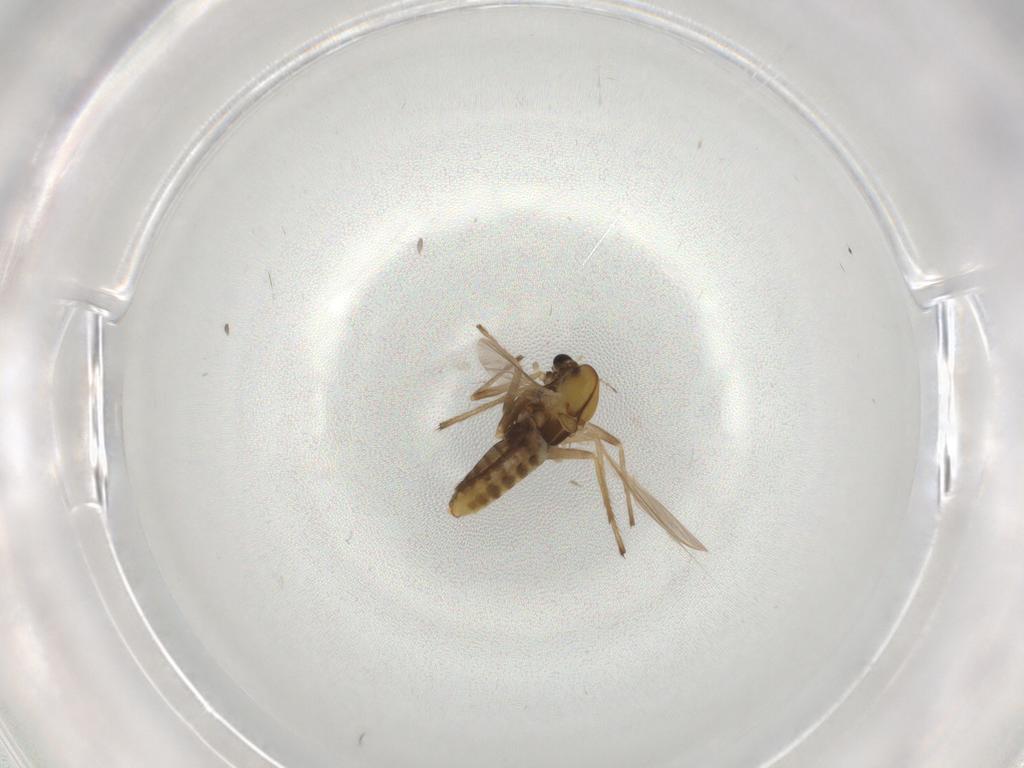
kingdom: Animalia
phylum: Arthropoda
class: Insecta
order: Diptera
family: Chironomidae
